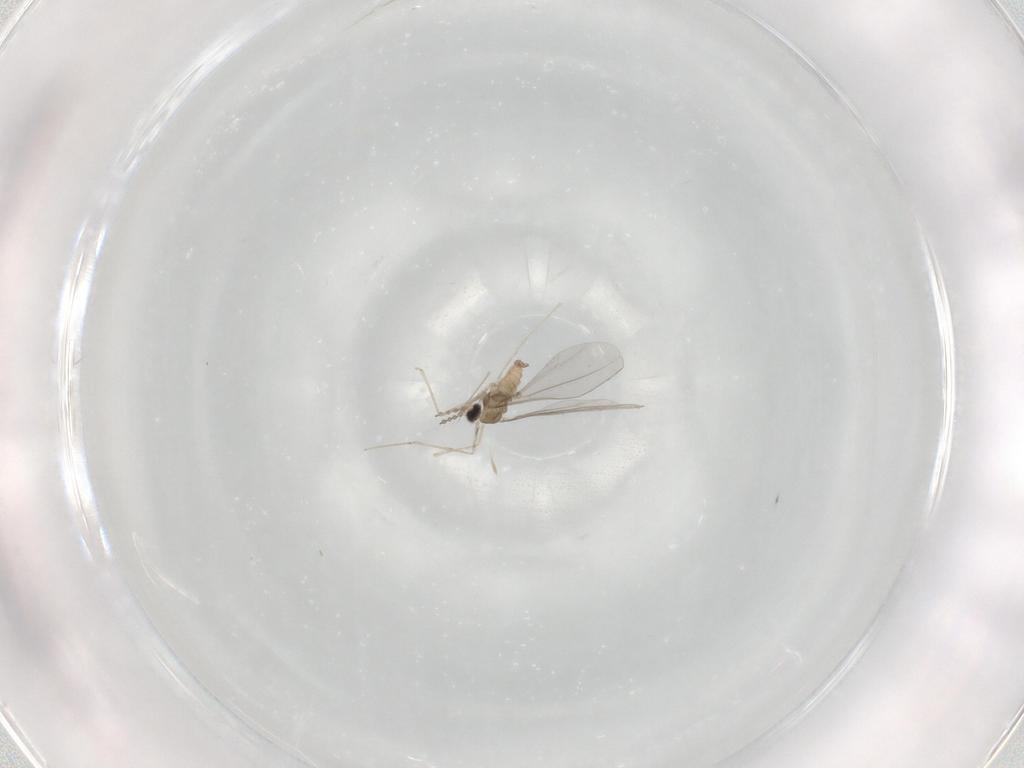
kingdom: Animalia
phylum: Arthropoda
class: Insecta
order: Diptera
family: Cecidomyiidae
